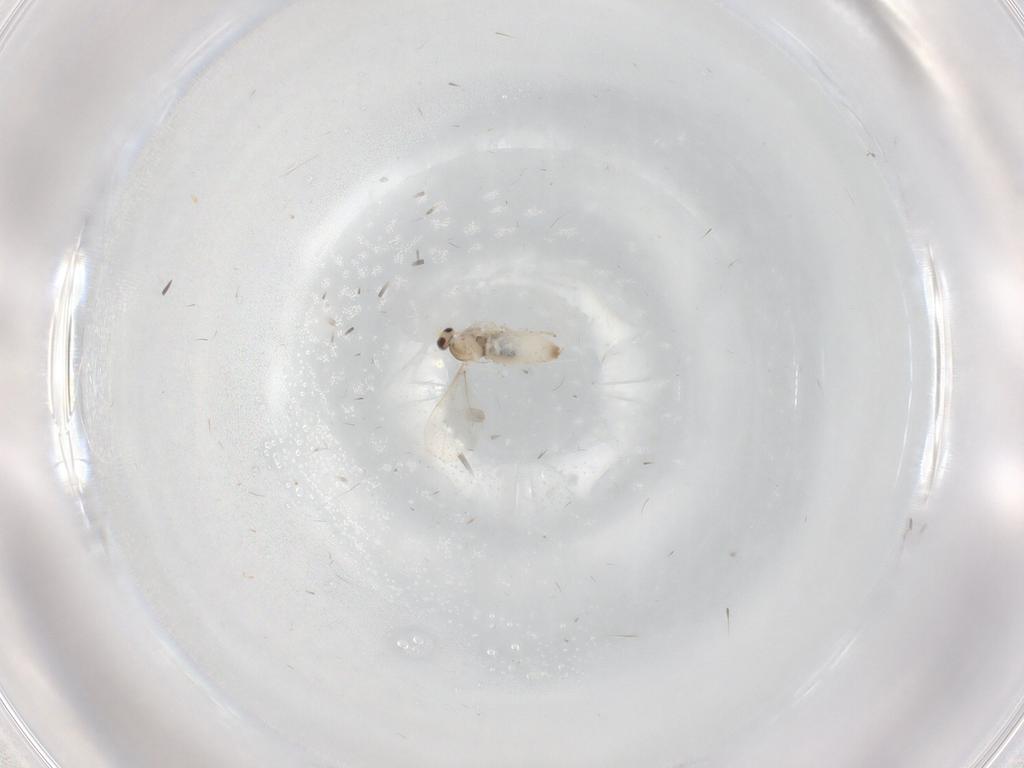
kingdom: Animalia
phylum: Arthropoda
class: Insecta
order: Diptera
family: Cecidomyiidae
